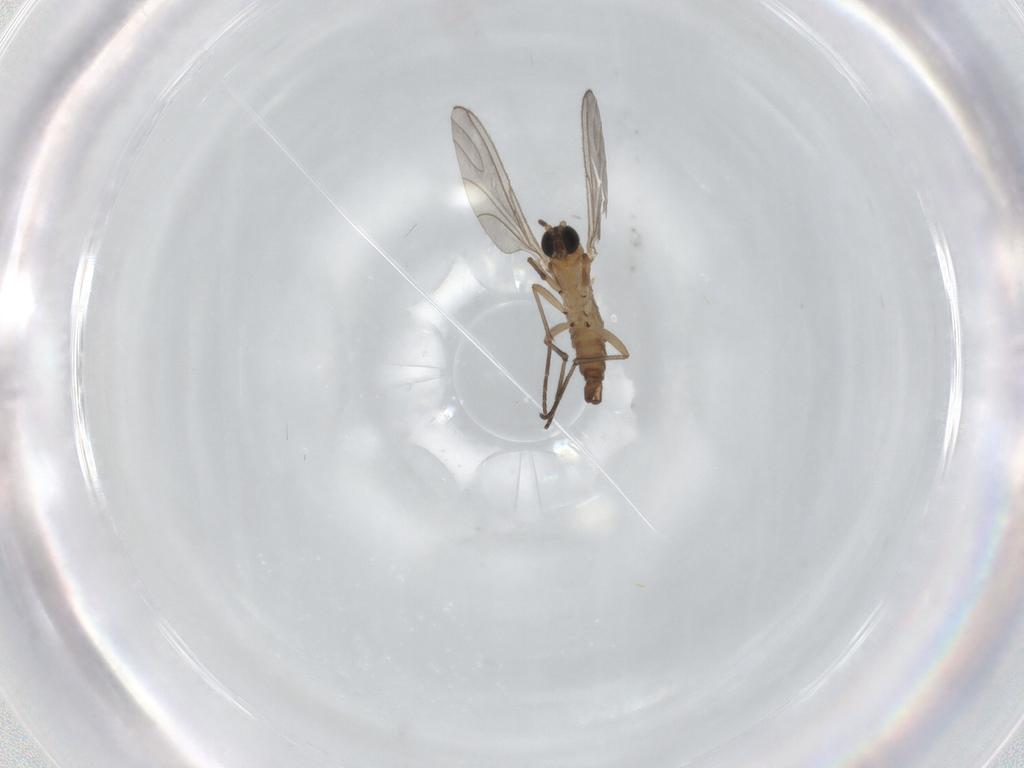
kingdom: Animalia
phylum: Arthropoda
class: Insecta
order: Diptera
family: Sciaridae
